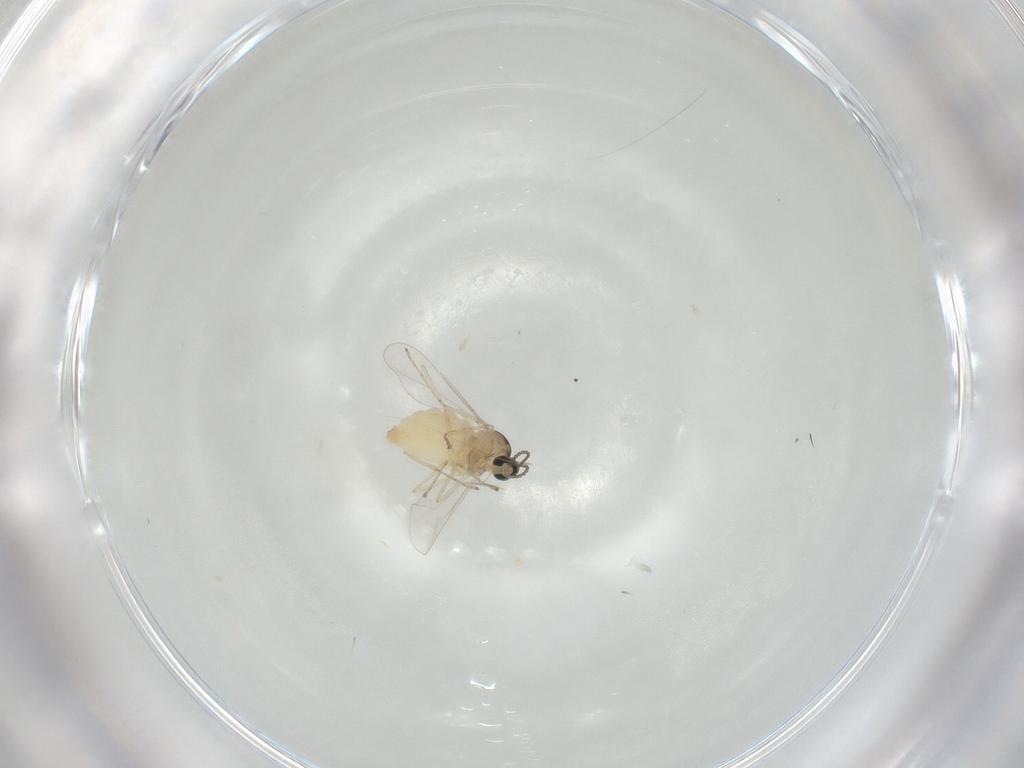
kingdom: Animalia
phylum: Arthropoda
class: Insecta
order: Diptera
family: Cecidomyiidae
